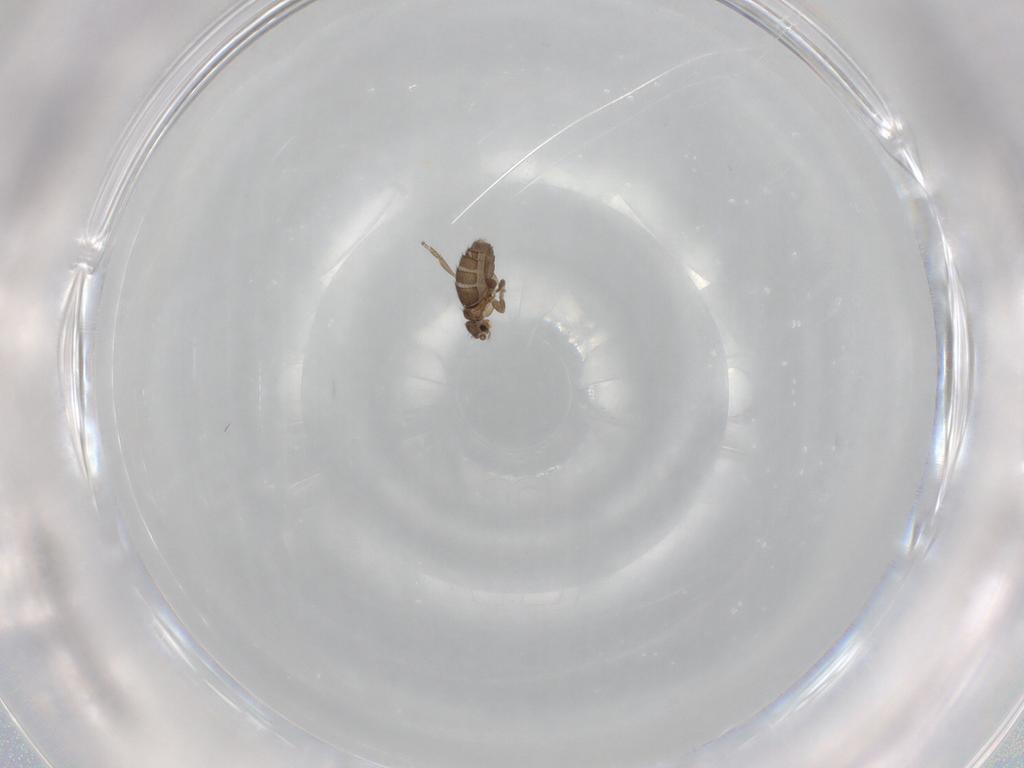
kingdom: Animalia
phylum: Arthropoda
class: Insecta
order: Diptera
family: Phoridae
